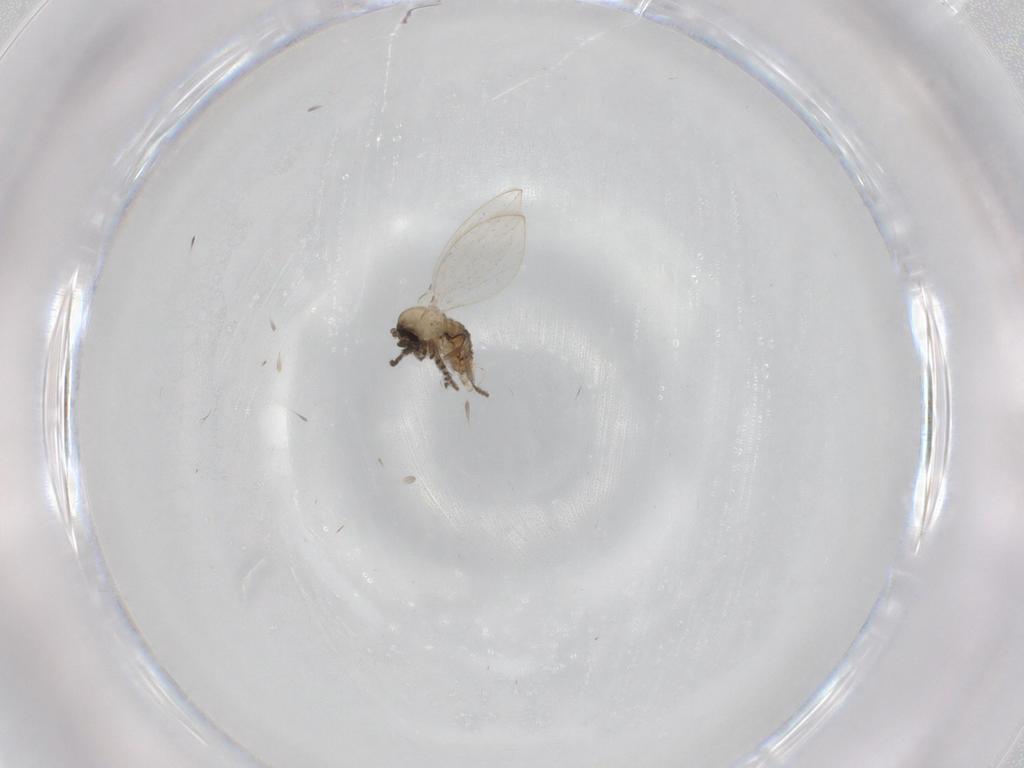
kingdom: Animalia
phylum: Arthropoda
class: Insecta
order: Diptera
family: Psychodidae
